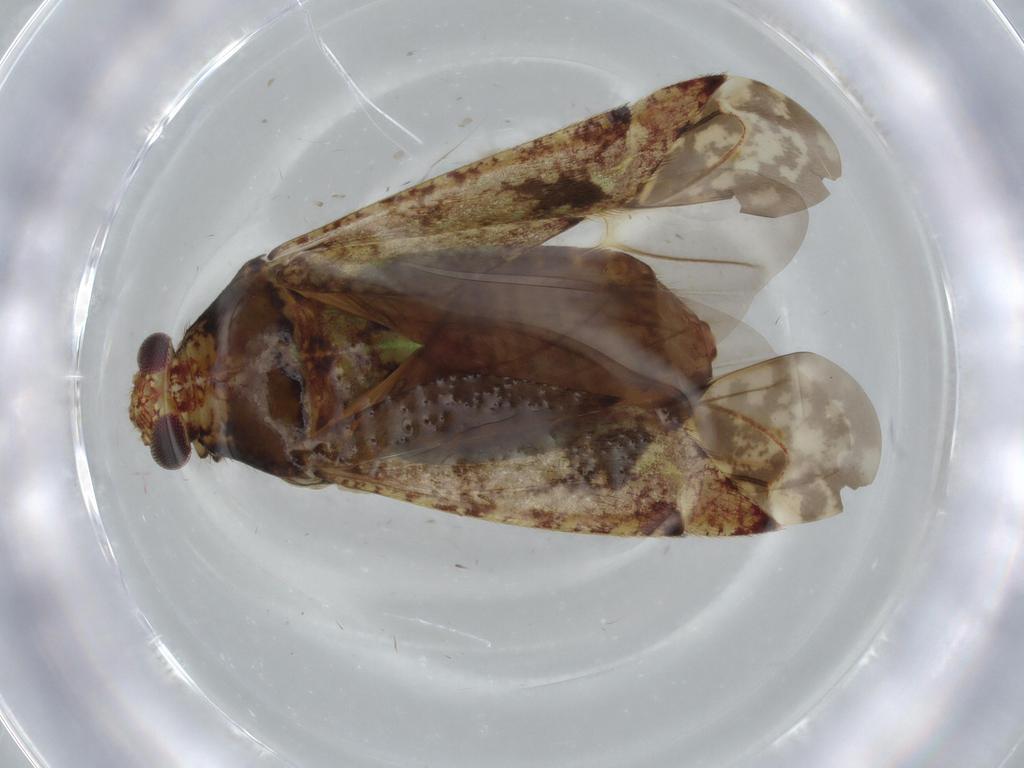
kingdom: Animalia
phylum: Arthropoda
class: Insecta
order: Hemiptera
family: Miridae
